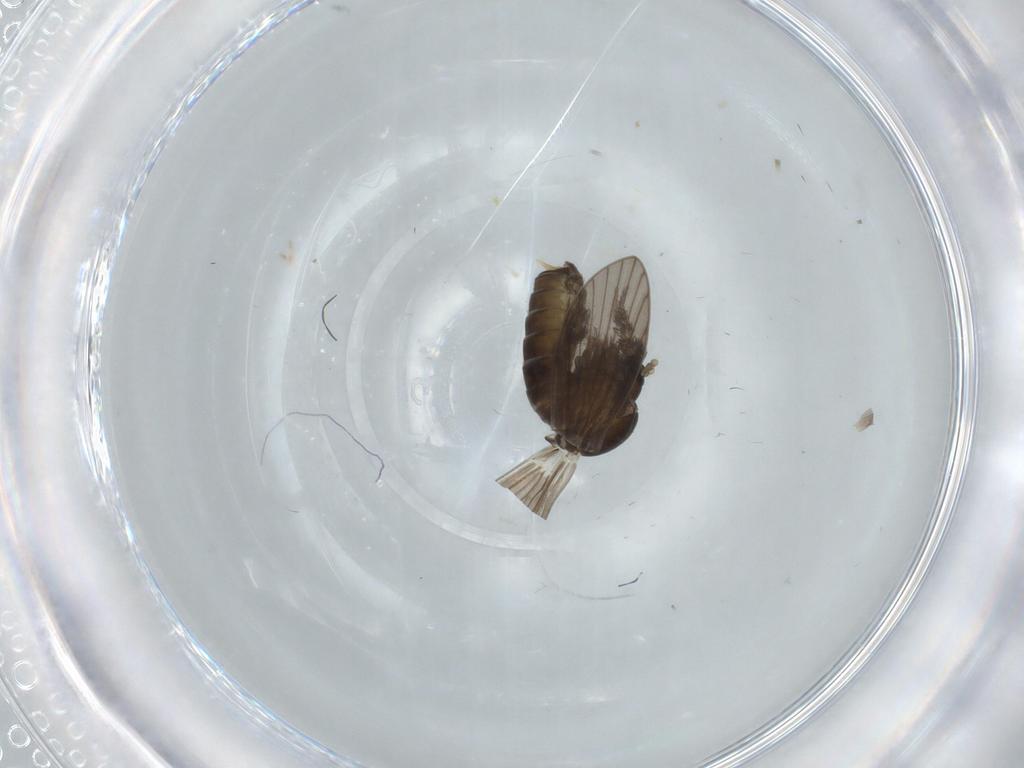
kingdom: Animalia
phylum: Arthropoda
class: Insecta
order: Diptera
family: Psychodidae
